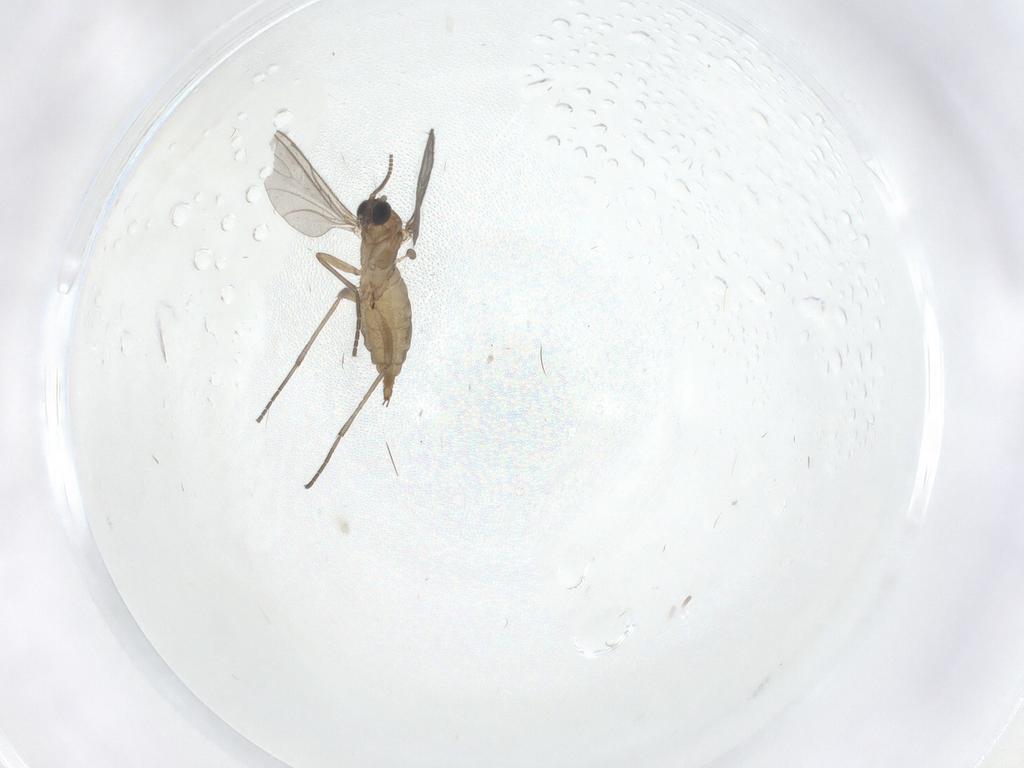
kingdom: Animalia
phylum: Arthropoda
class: Insecta
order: Diptera
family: Sciaridae
